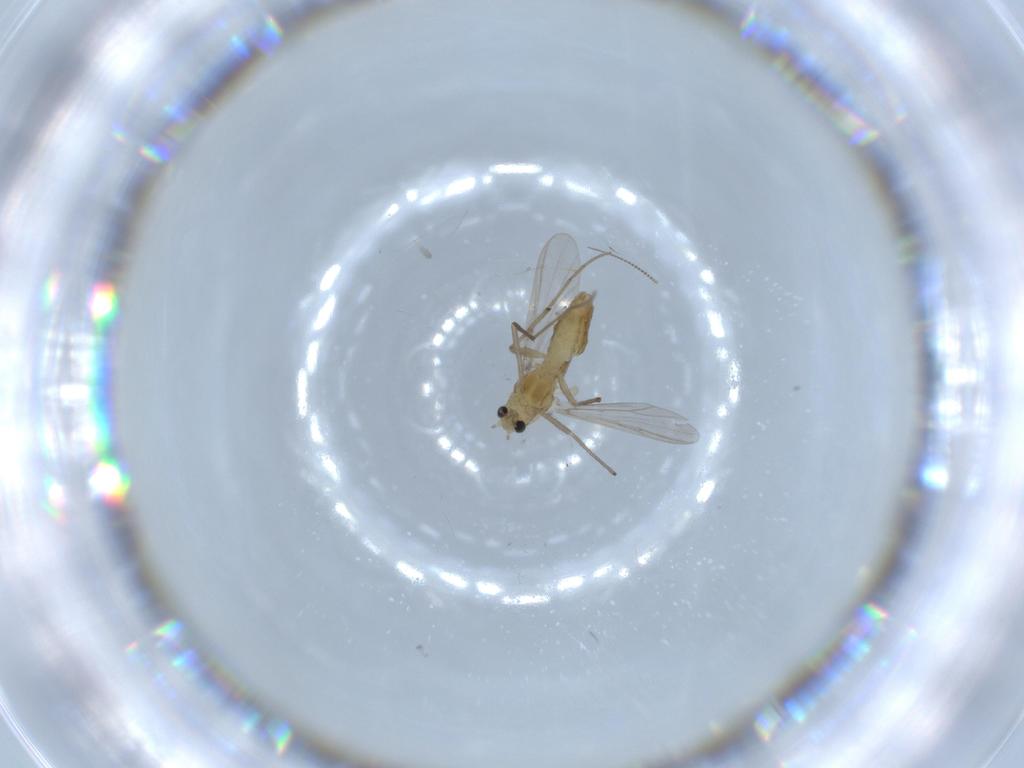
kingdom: Animalia
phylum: Arthropoda
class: Insecta
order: Diptera
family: Chironomidae
